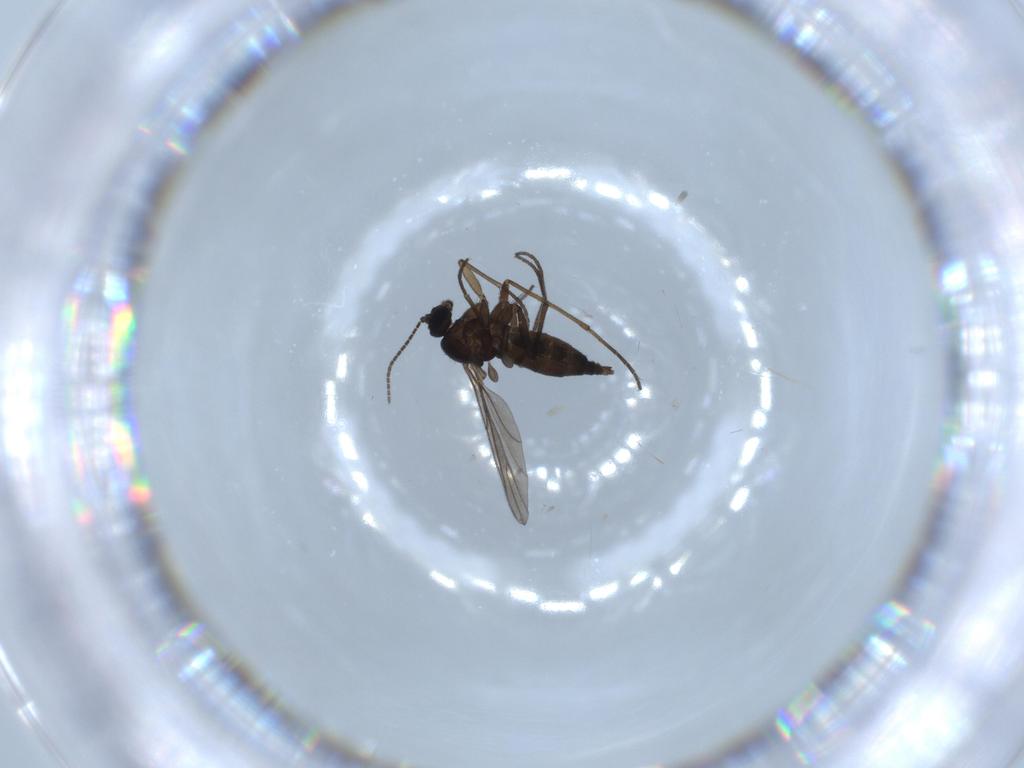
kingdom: Animalia
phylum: Arthropoda
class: Insecta
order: Diptera
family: Sciaridae
